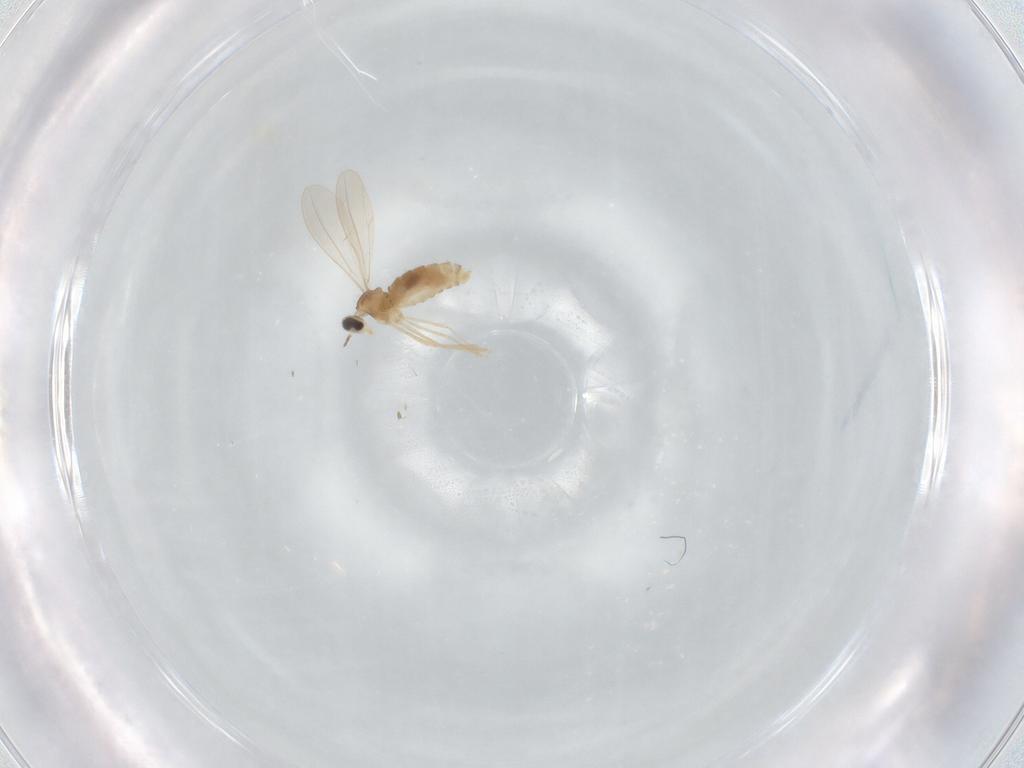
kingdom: Animalia
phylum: Arthropoda
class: Insecta
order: Diptera
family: Cecidomyiidae
